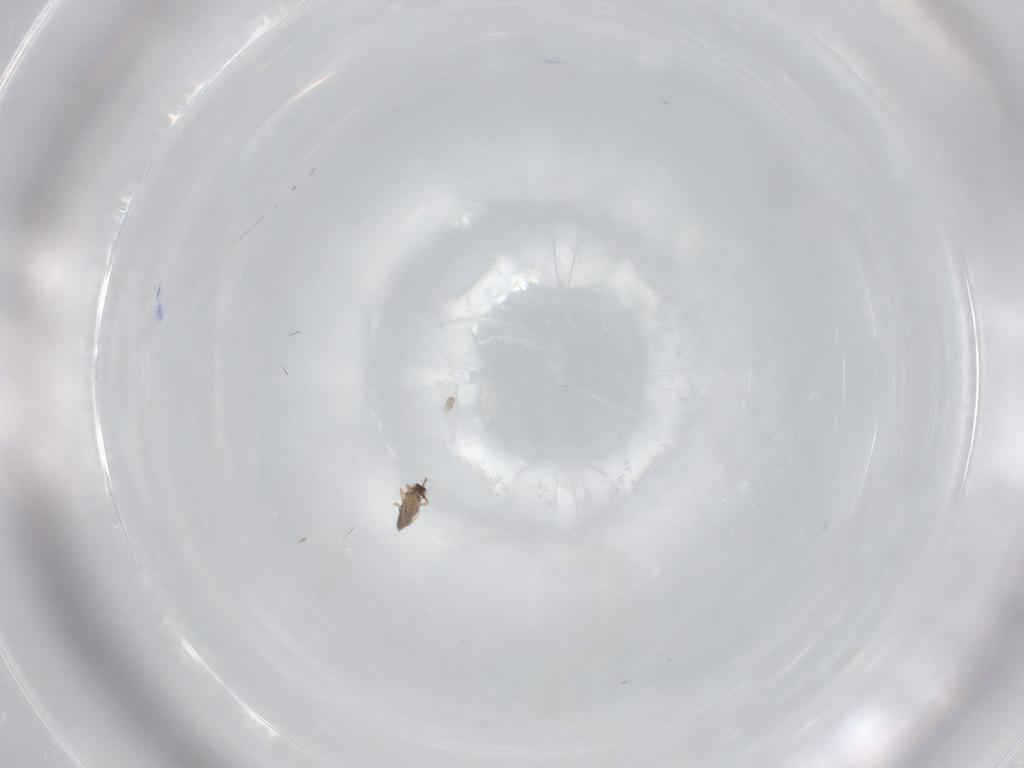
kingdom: Animalia
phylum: Arthropoda
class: Insecta
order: Hymenoptera
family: Mymaridae
